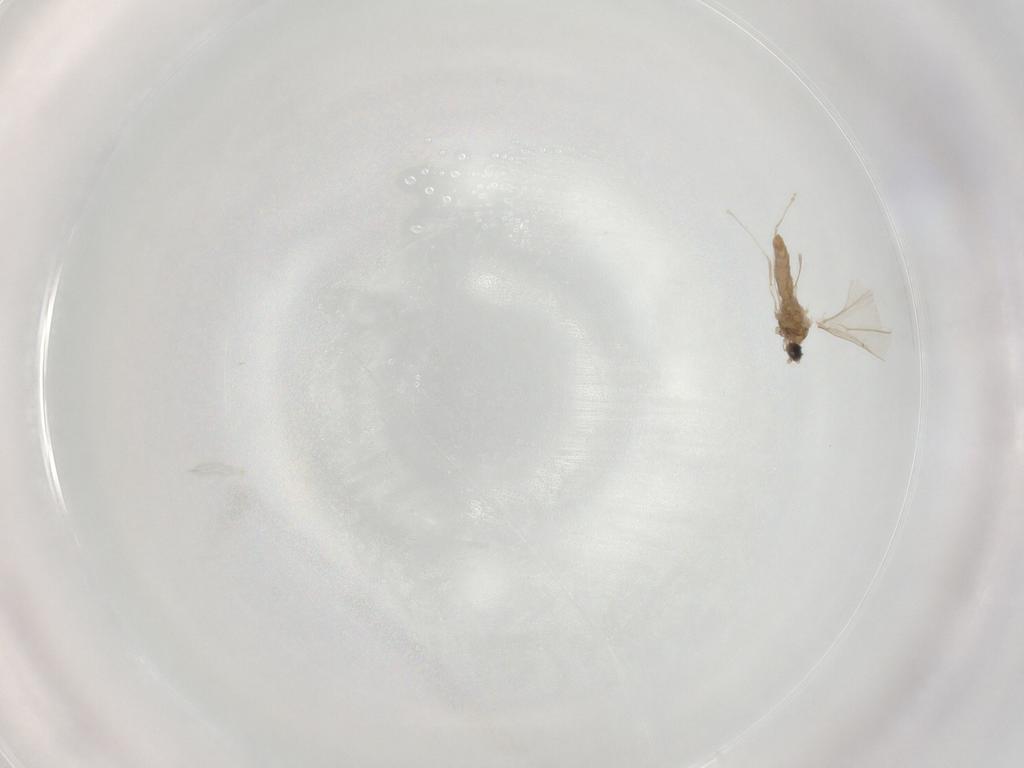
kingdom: Animalia
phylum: Arthropoda
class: Insecta
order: Diptera
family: Cecidomyiidae
